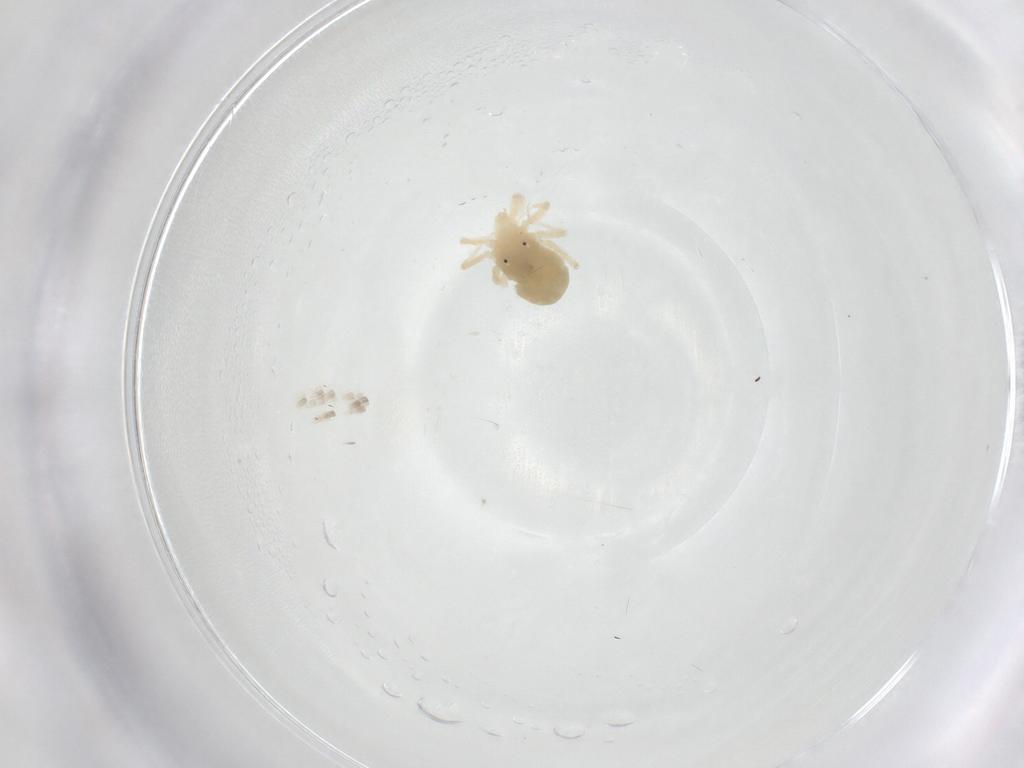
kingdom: Animalia
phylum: Arthropoda
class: Arachnida
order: Trombidiformes
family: Anystidae
